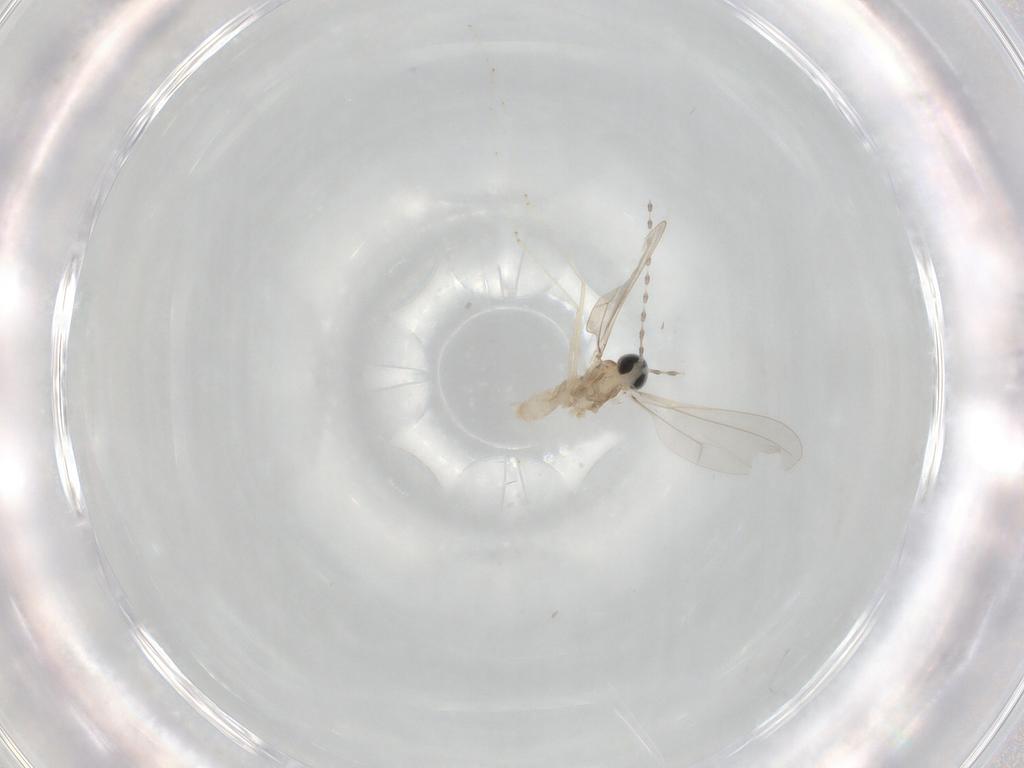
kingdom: Animalia
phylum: Arthropoda
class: Insecta
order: Diptera
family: Cecidomyiidae
